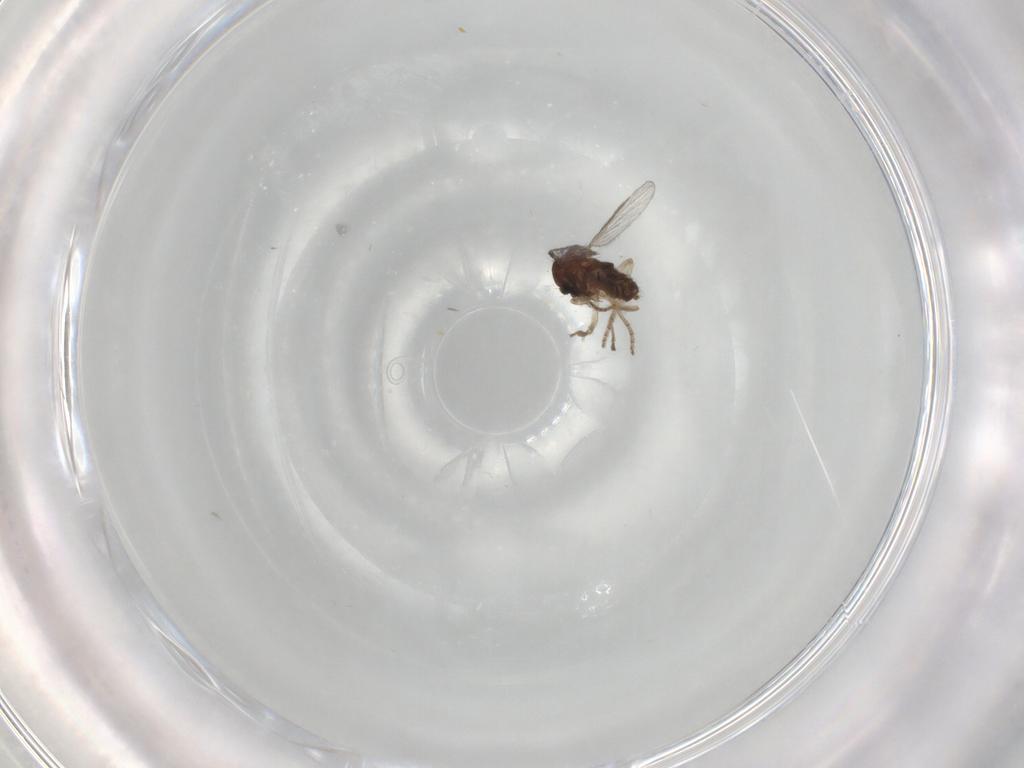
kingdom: Animalia
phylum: Arthropoda
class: Insecta
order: Diptera
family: Ceratopogonidae
